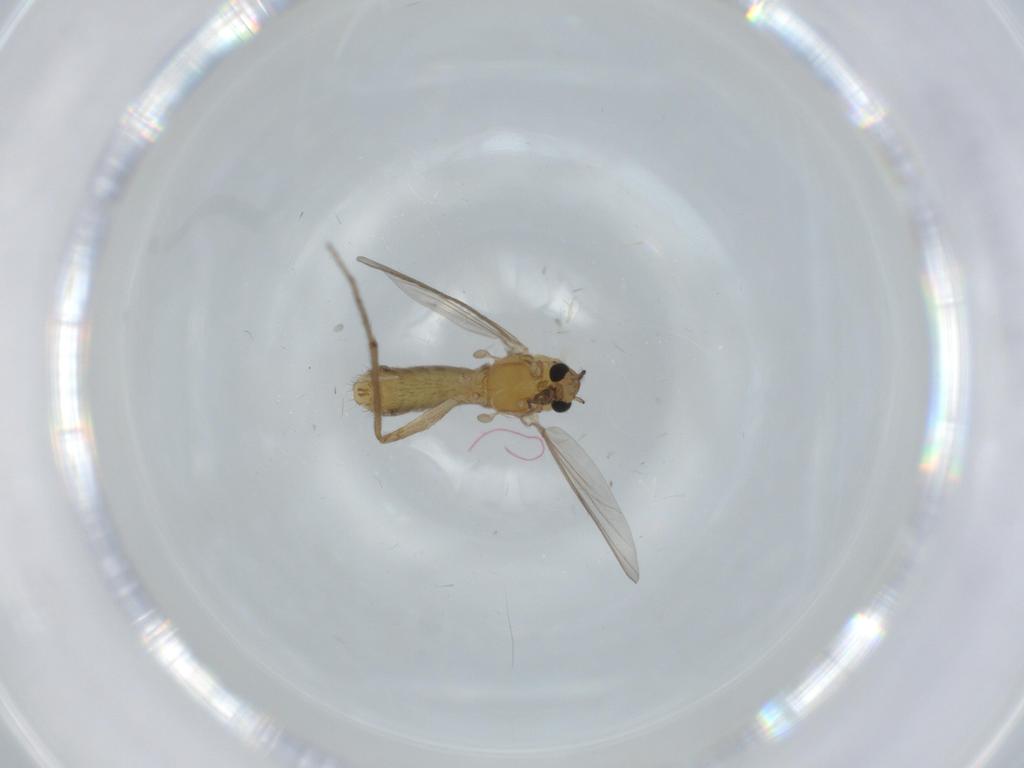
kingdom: Animalia
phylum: Arthropoda
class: Insecta
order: Diptera
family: Chironomidae
